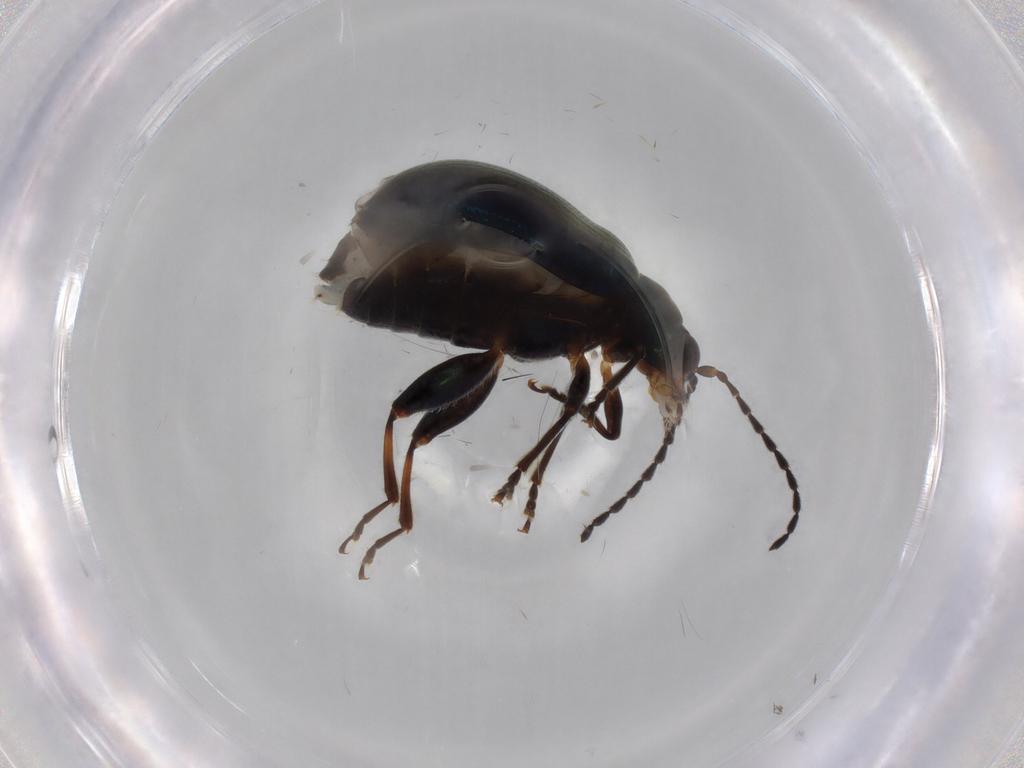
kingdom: Animalia
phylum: Arthropoda
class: Insecta
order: Coleoptera
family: Chrysomelidae
